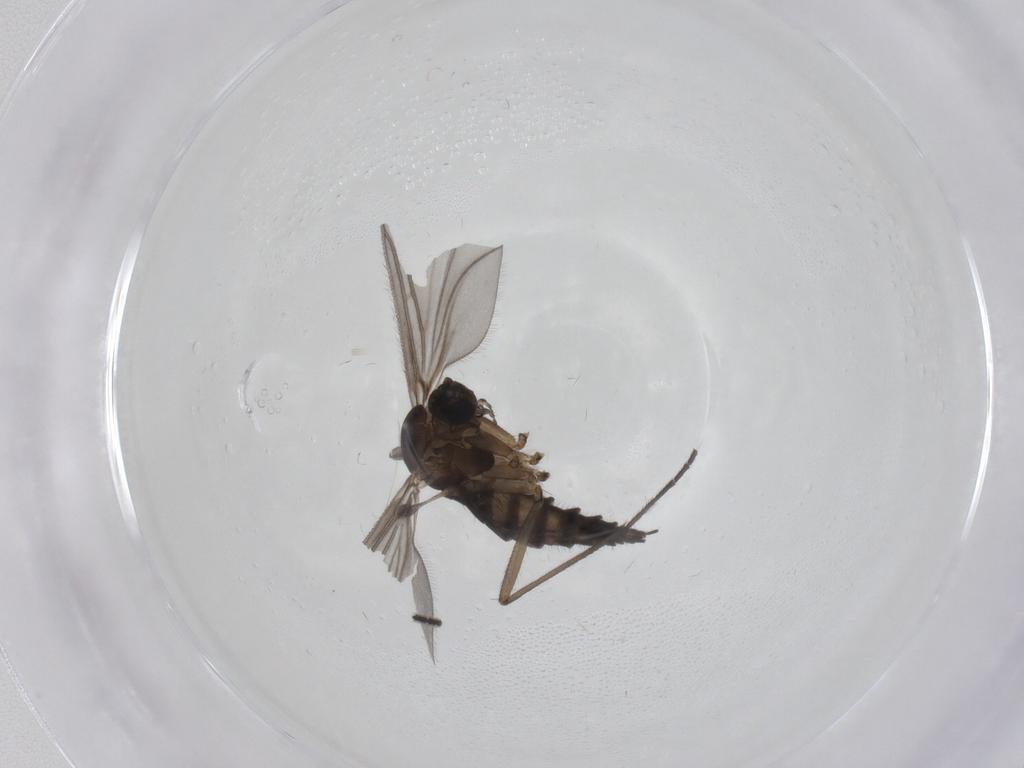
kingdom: Animalia
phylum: Arthropoda
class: Insecta
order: Diptera
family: Sciaridae
